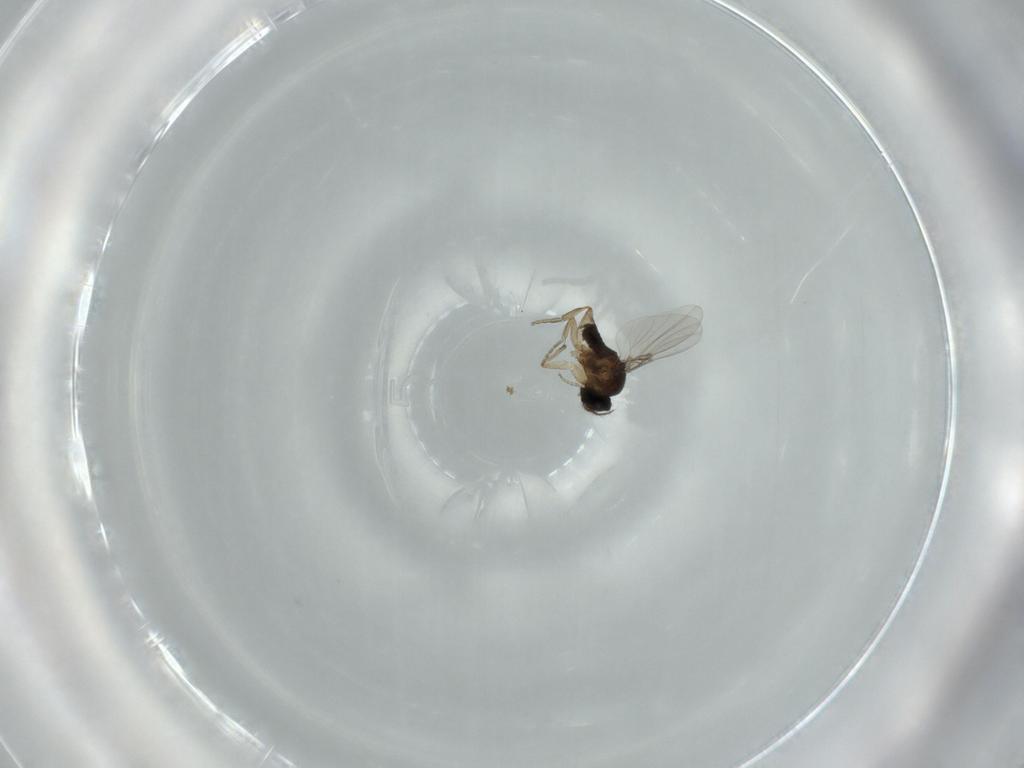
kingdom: Animalia
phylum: Arthropoda
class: Insecta
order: Diptera
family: Phoridae
